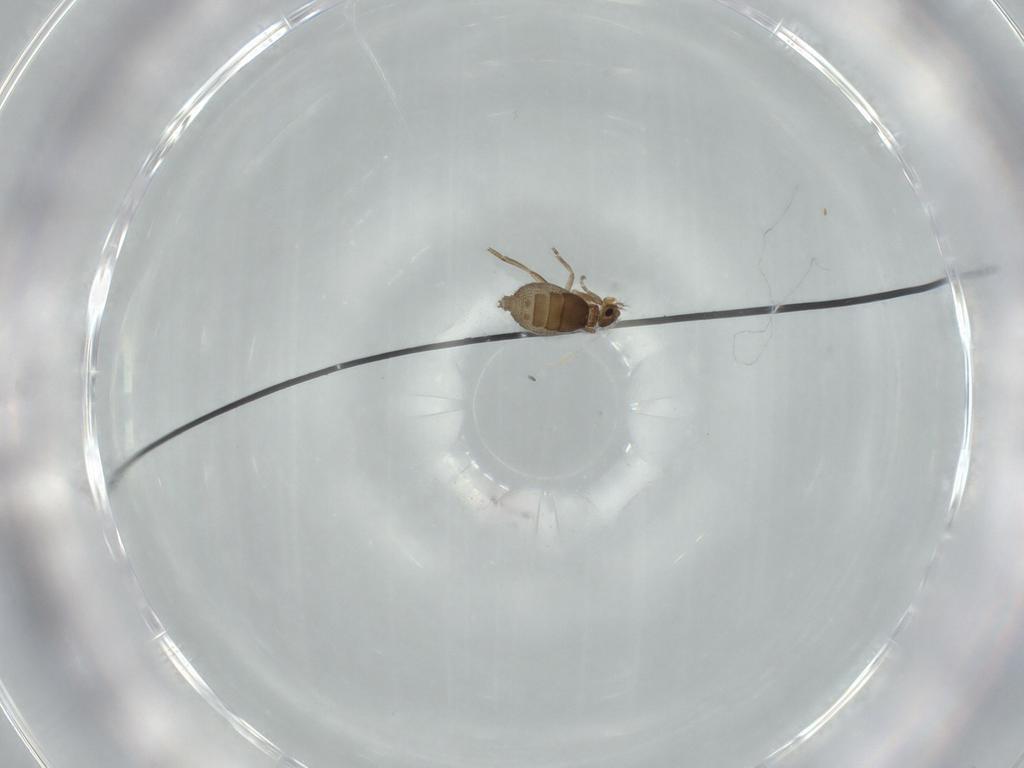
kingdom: Animalia
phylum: Arthropoda
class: Insecta
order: Diptera
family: Phoridae
